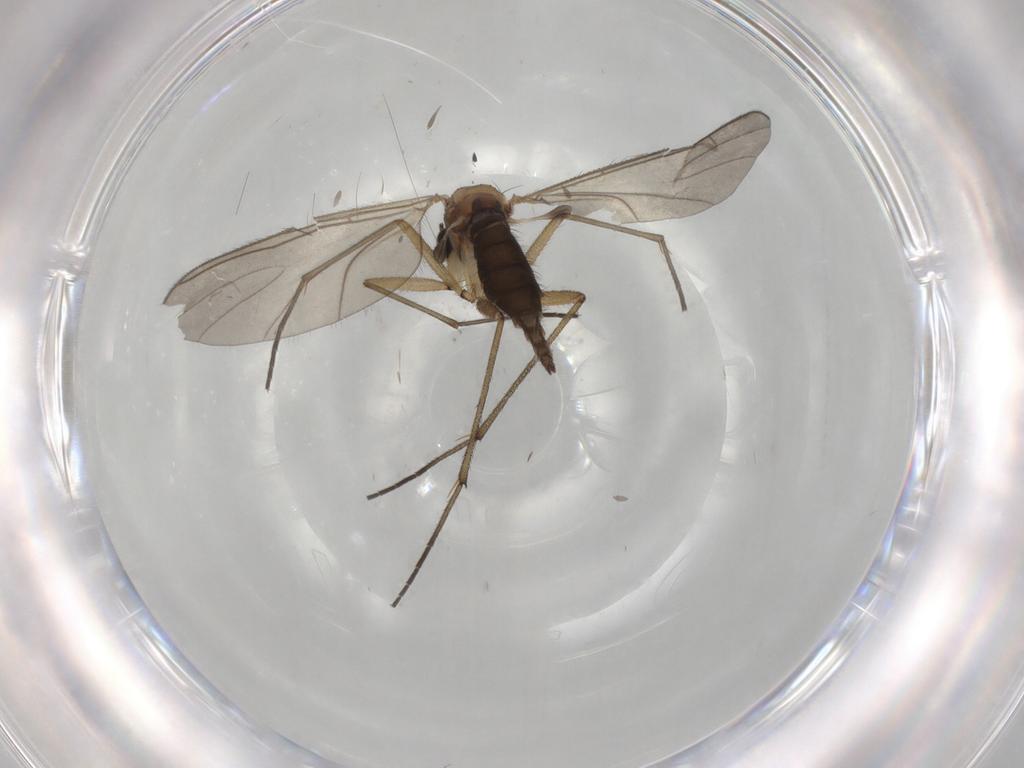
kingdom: Animalia
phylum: Arthropoda
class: Insecta
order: Diptera
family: Sciaridae
